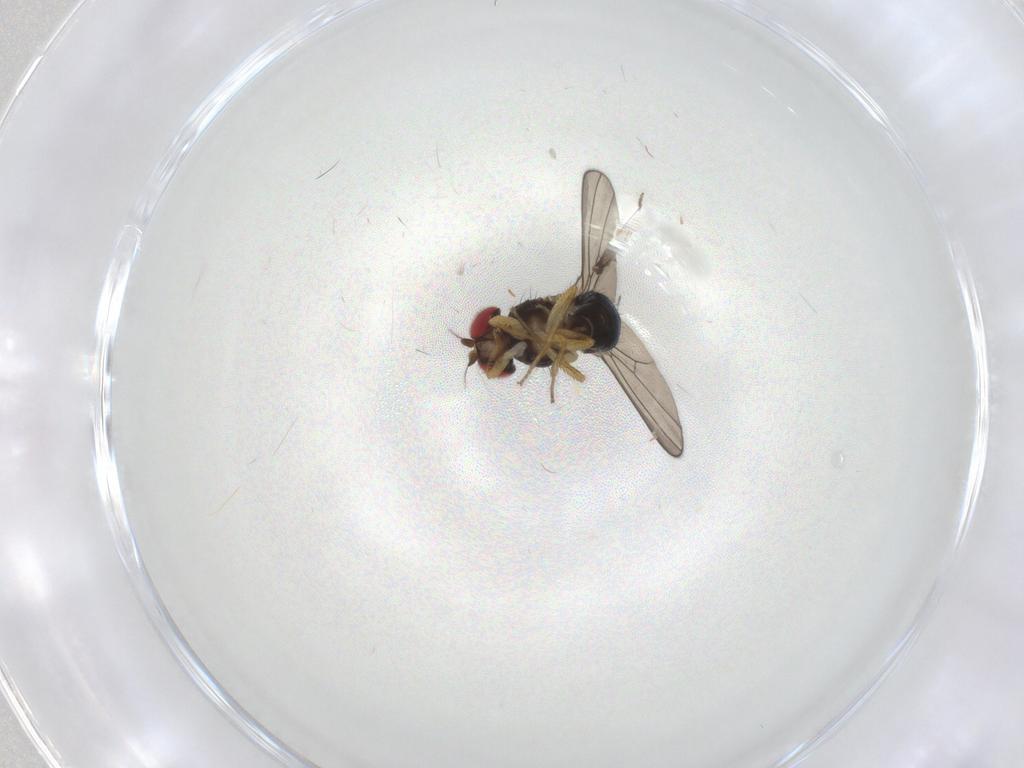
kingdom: Animalia
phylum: Arthropoda
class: Insecta
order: Diptera
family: Drosophilidae
